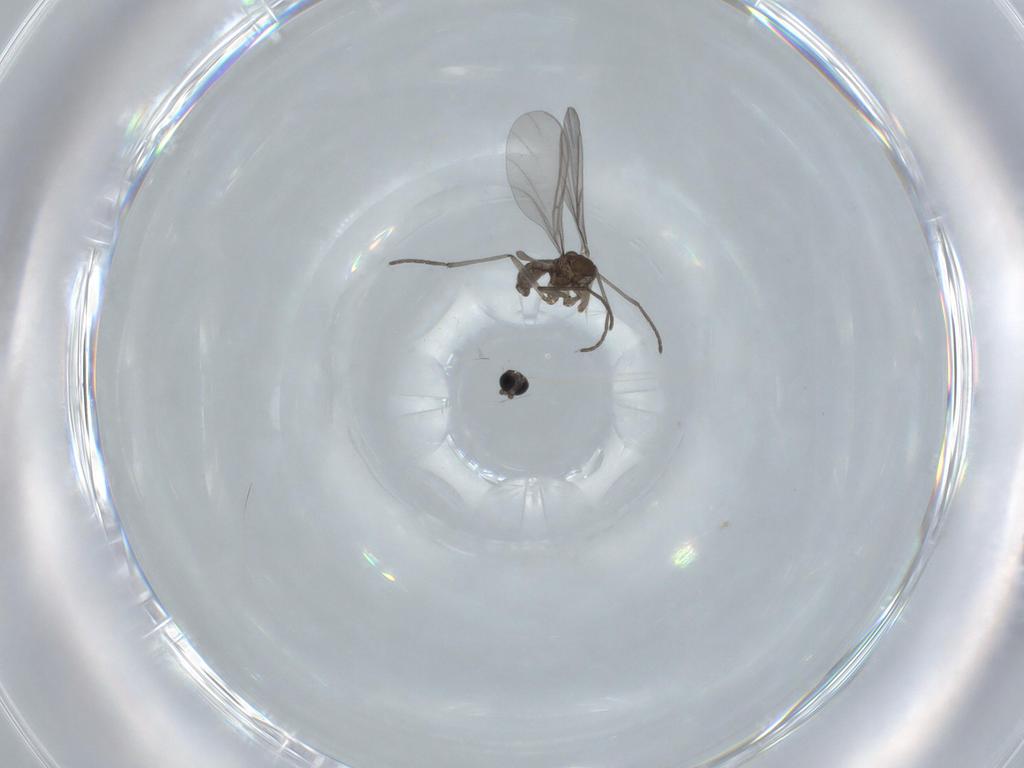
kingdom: Animalia
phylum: Arthropoda
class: Insecta
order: Diptera
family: Sciaridae
